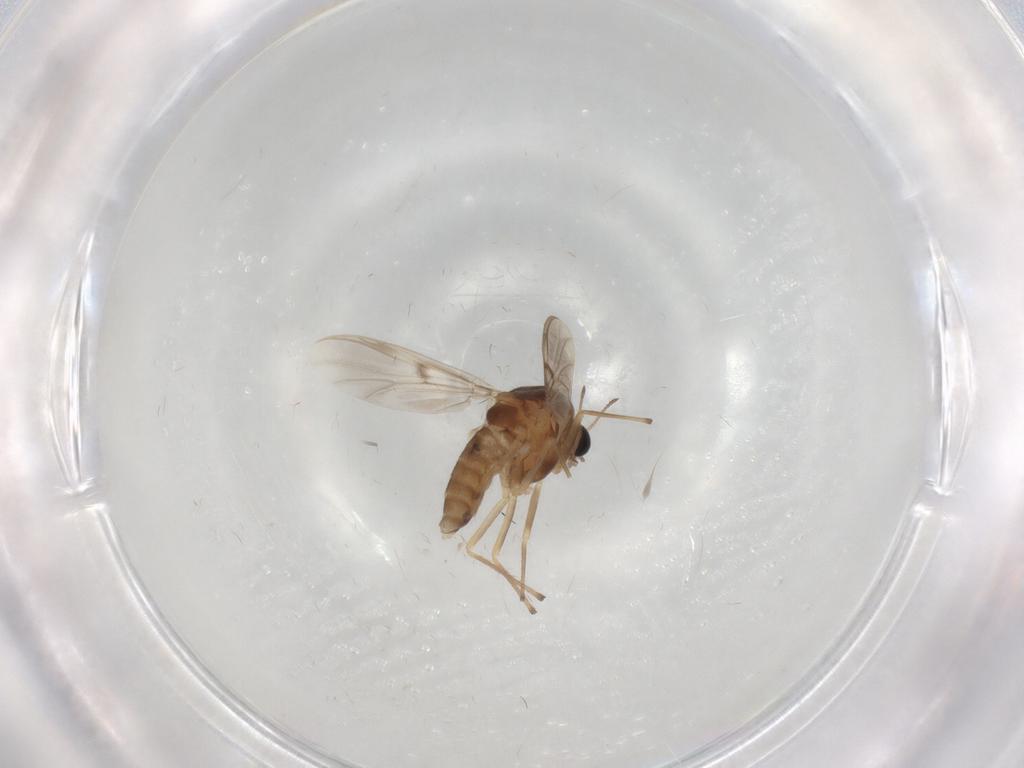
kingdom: Animalia
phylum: Arthropoda
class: Insecta
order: Diptera
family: Chironomidae
